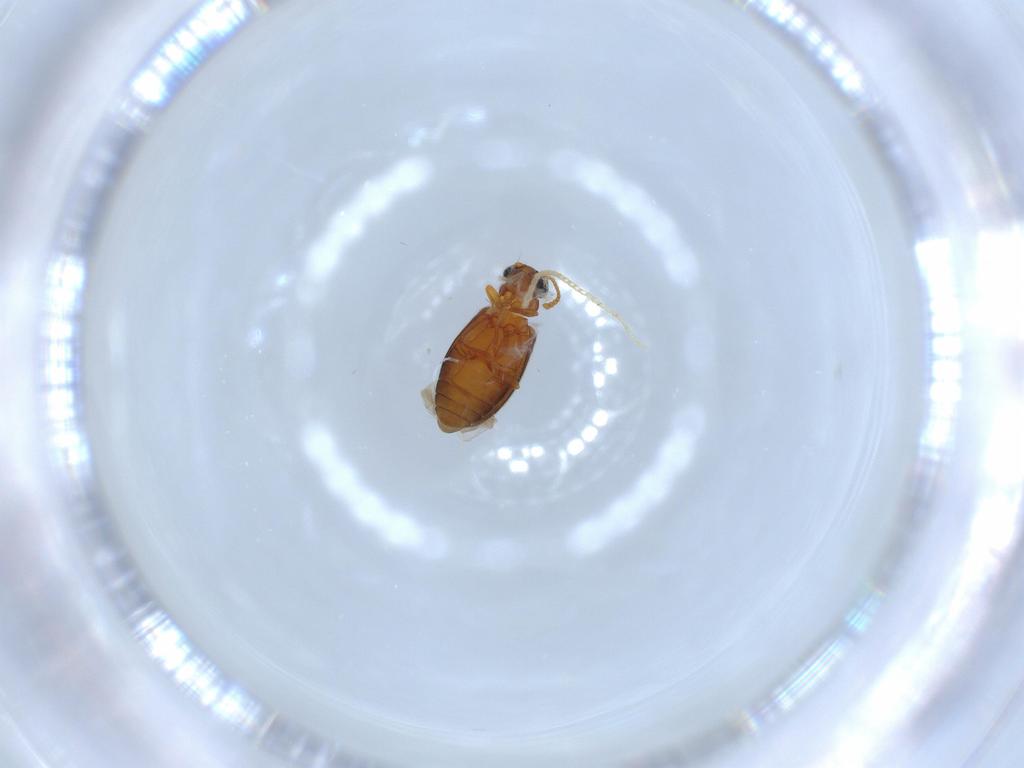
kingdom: Animalia
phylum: Arthropoda
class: Insecta
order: Coleoptera
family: Aderidae
